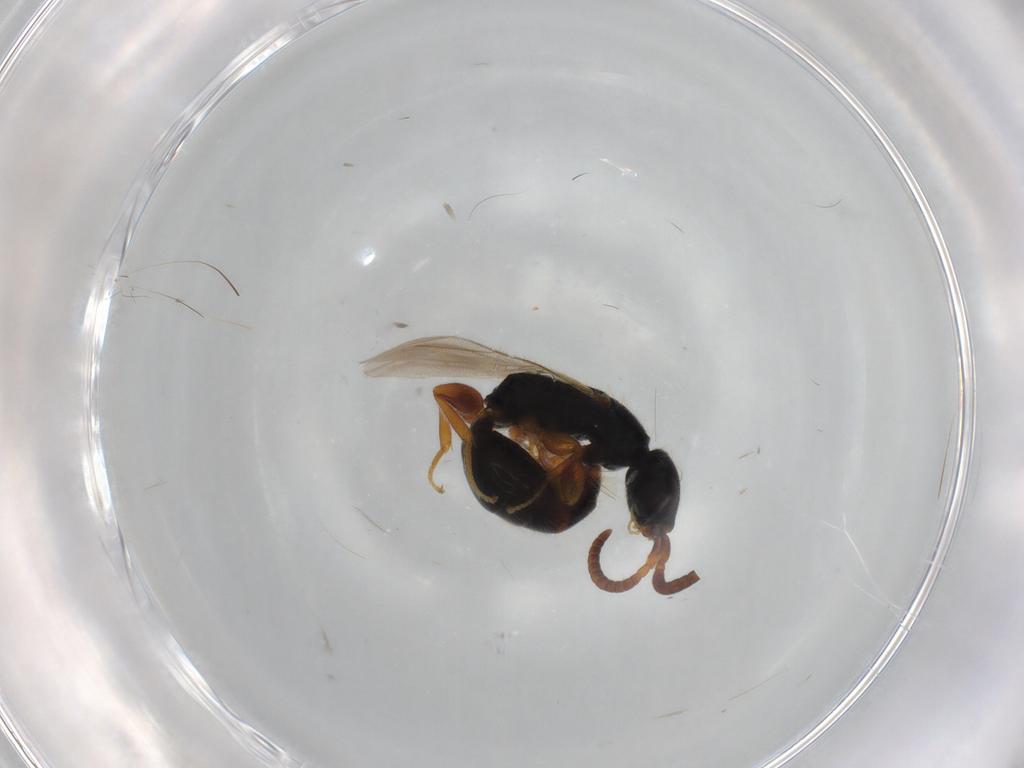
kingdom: Animalia
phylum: Arthropoda
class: Insecta
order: Hymenoptera
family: Bethylidae
